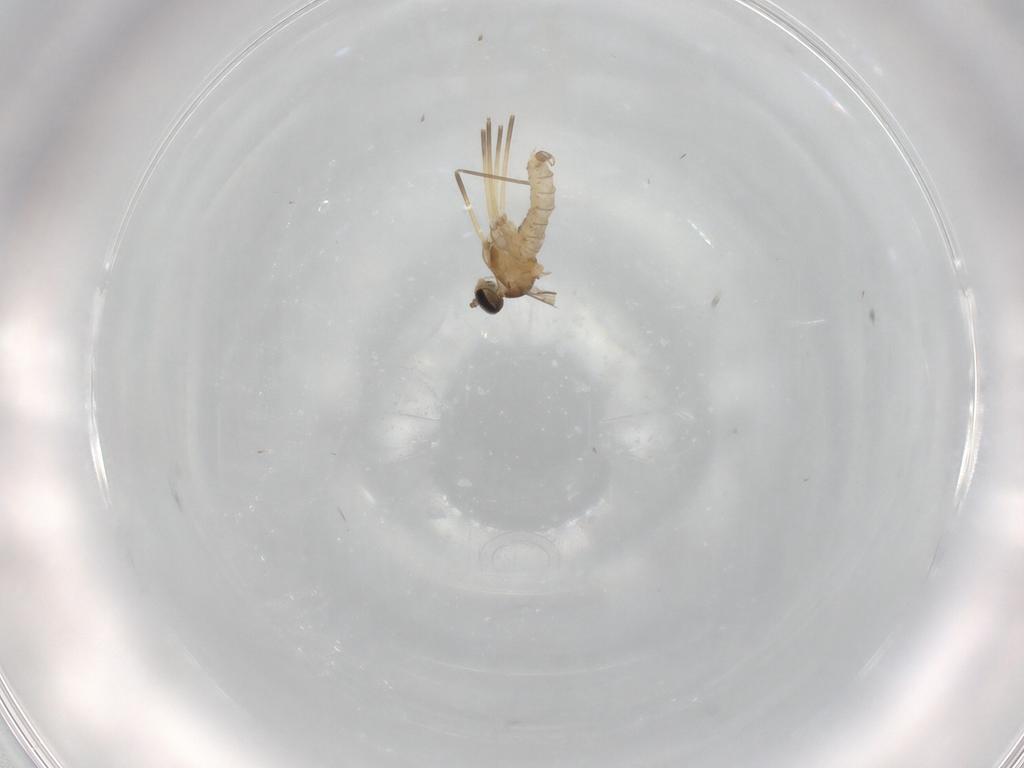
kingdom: Animalia
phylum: Arthropoda
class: Insecta
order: Diptera
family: Cecidomyiidae
